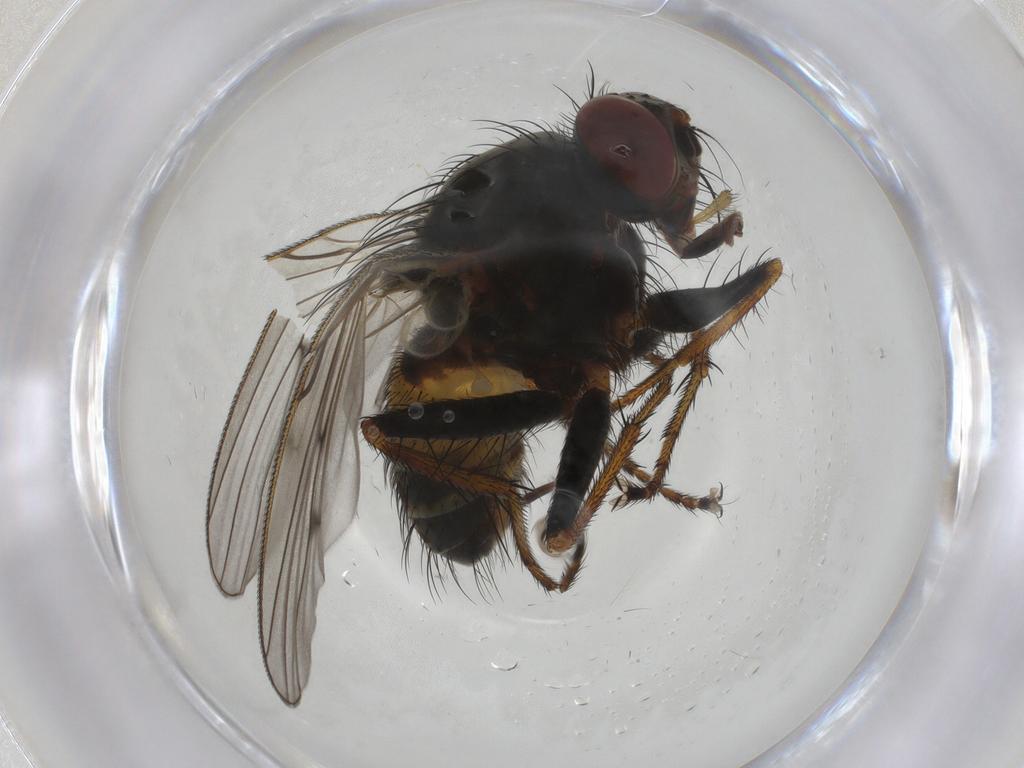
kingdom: Animalia
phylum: Arthropoda
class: Insecta
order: Diptera
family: Muscidae
